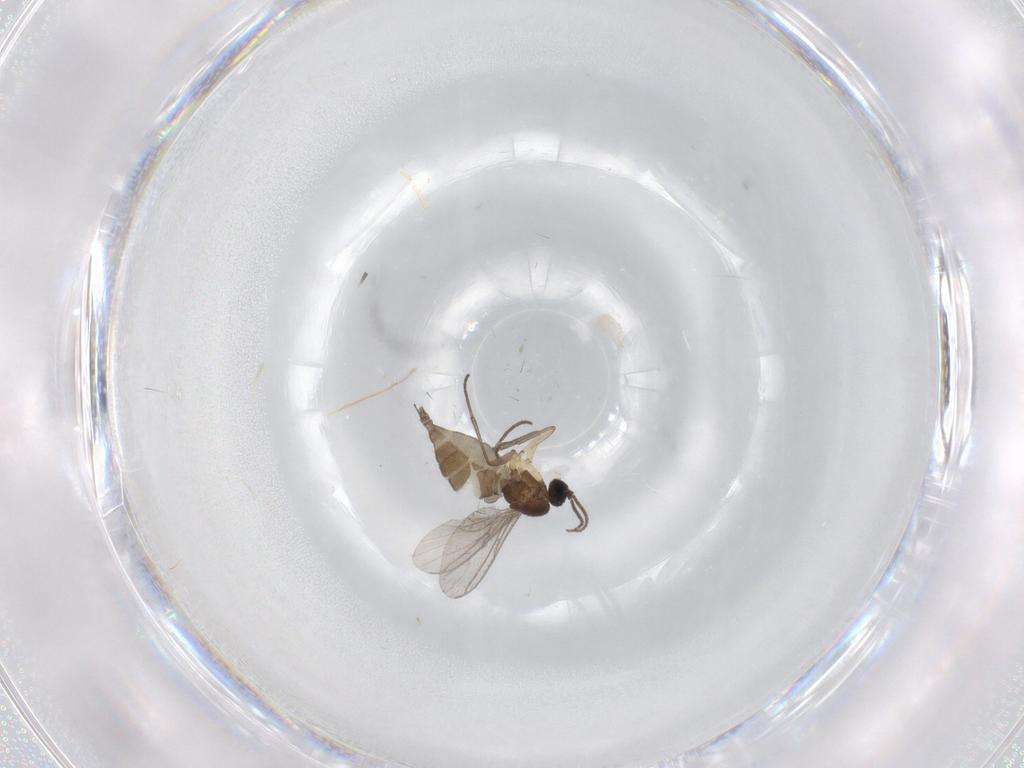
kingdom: Animalia
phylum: Arthropoda
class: Insecta
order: Diptera
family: Sciaridae
